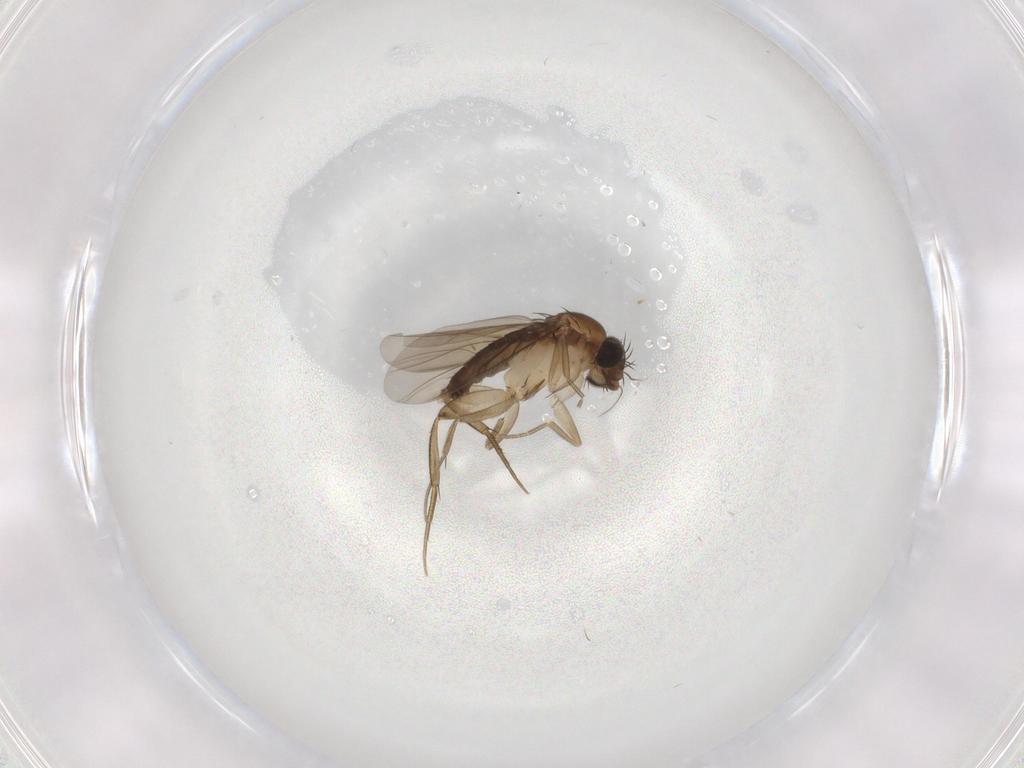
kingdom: Animalia
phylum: Arthropoda
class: Insecta
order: Diptera
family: Phoridae
